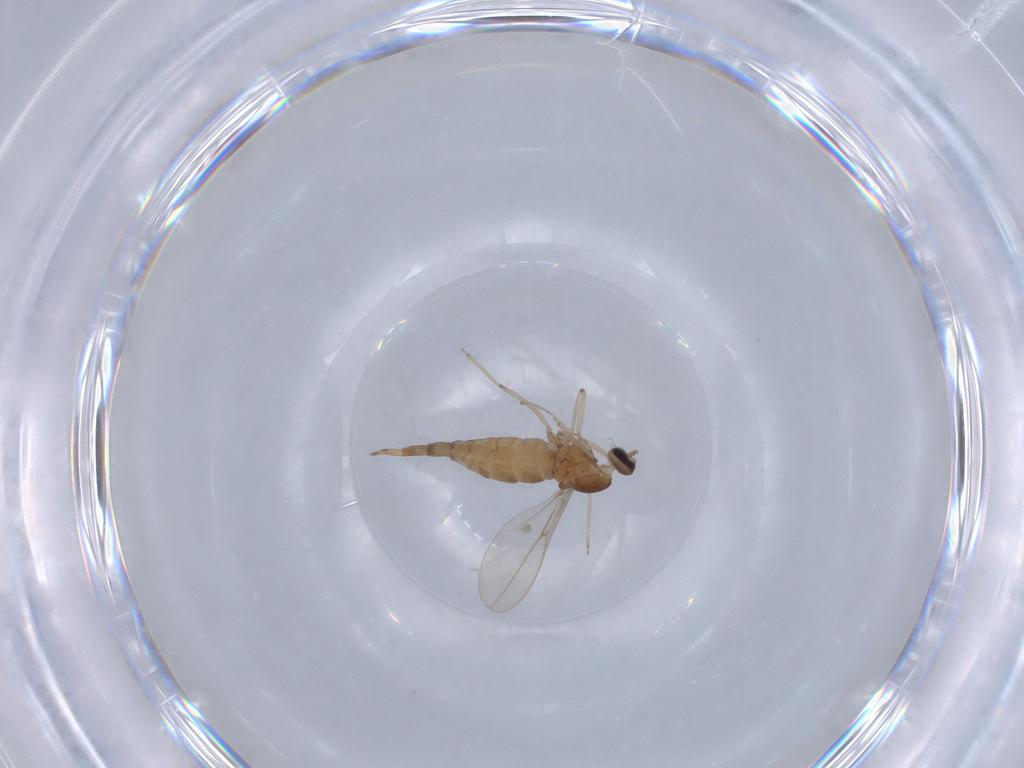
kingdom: Animalia
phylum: Arthropoda
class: Insecta
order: Diptera
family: Cecidomyiidae
